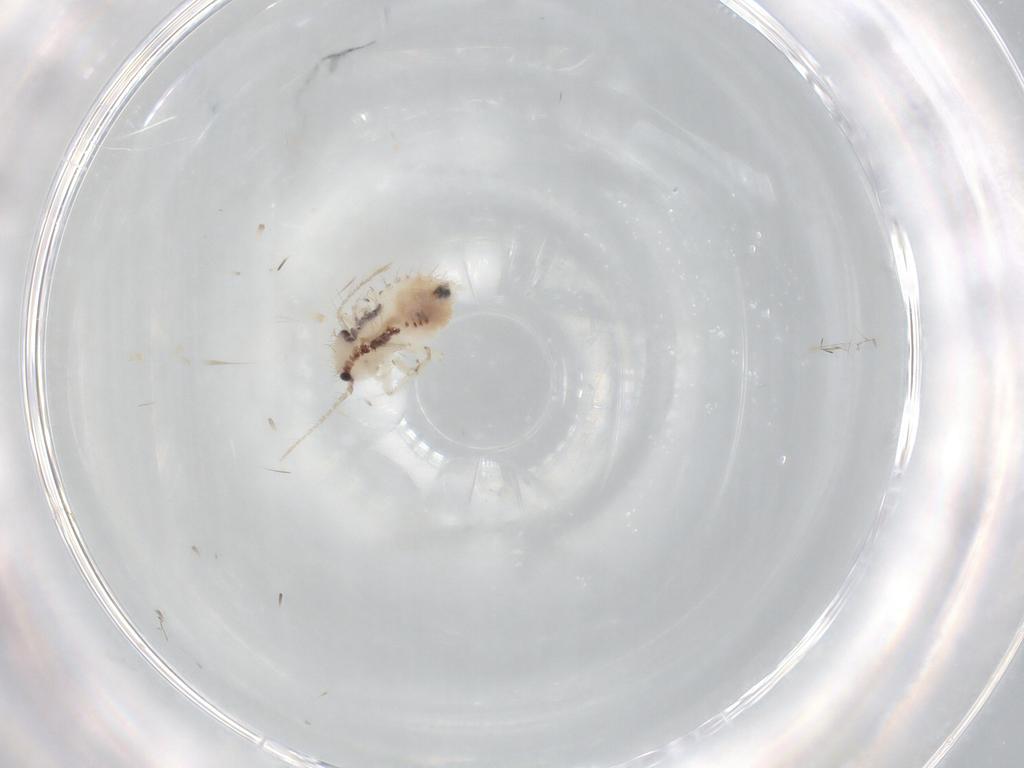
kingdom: Animalia
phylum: Arthropoda
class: Insecta
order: Psocodea
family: Pseudocaeciliidae
